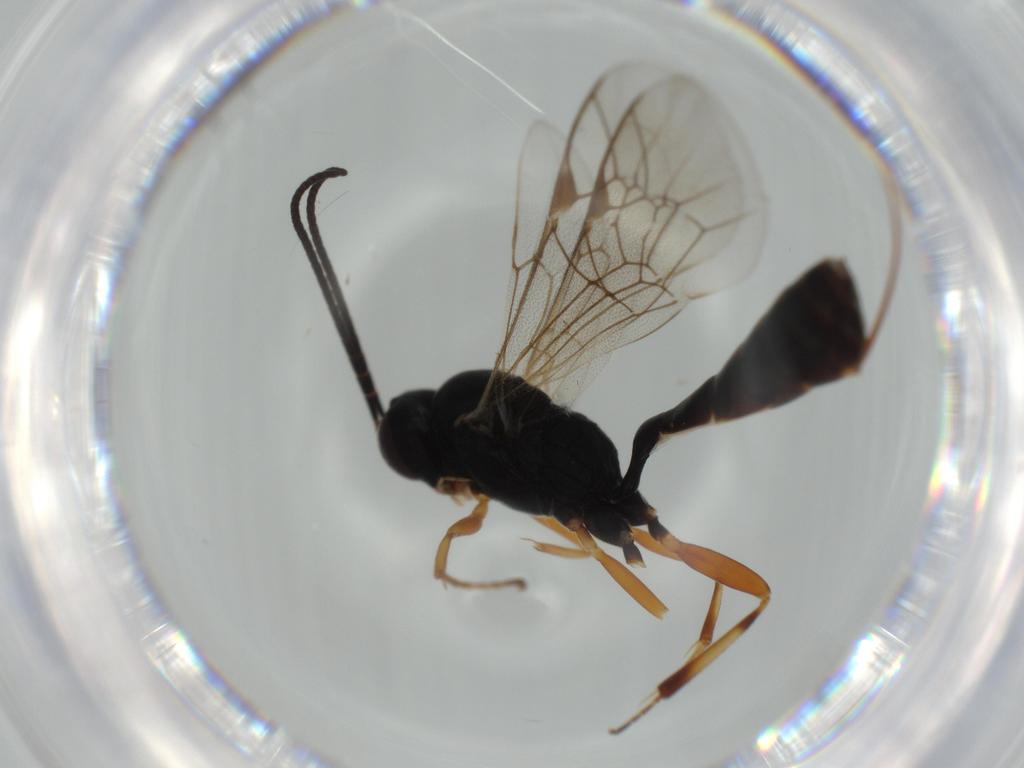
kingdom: Animalia
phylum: Arthropoda
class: Insecta
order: Hymenoptera
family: Ichneumonidae
